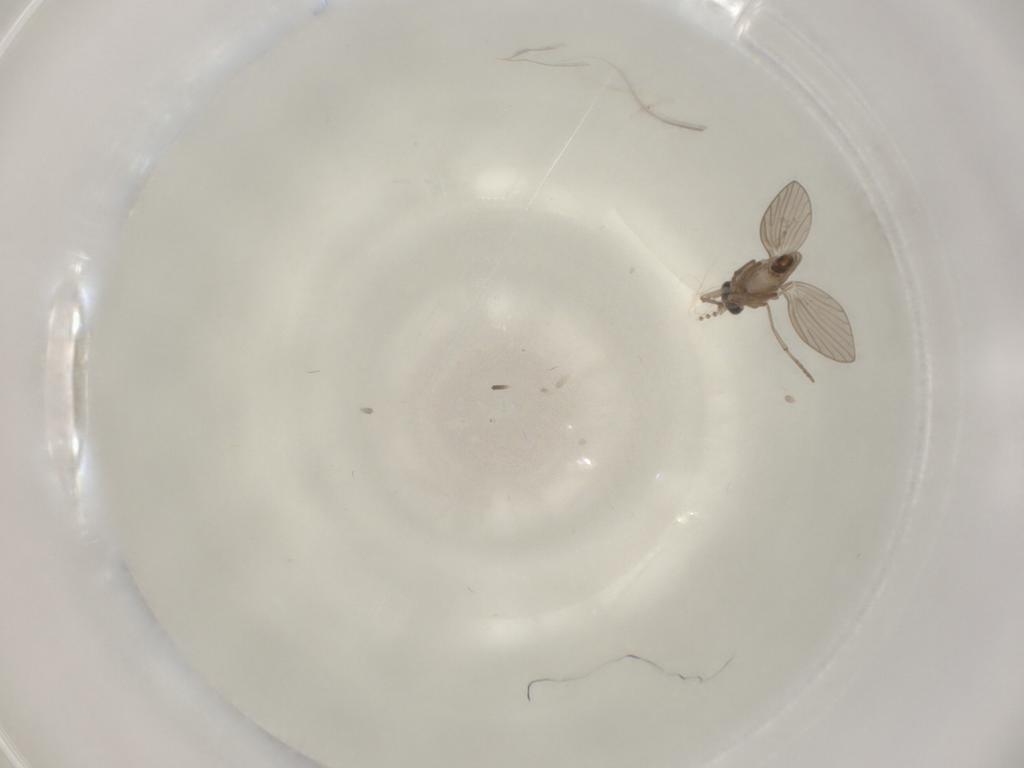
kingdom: Animalia
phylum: Arthropoda
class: Insecta
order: Diptera
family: Psychodidae
